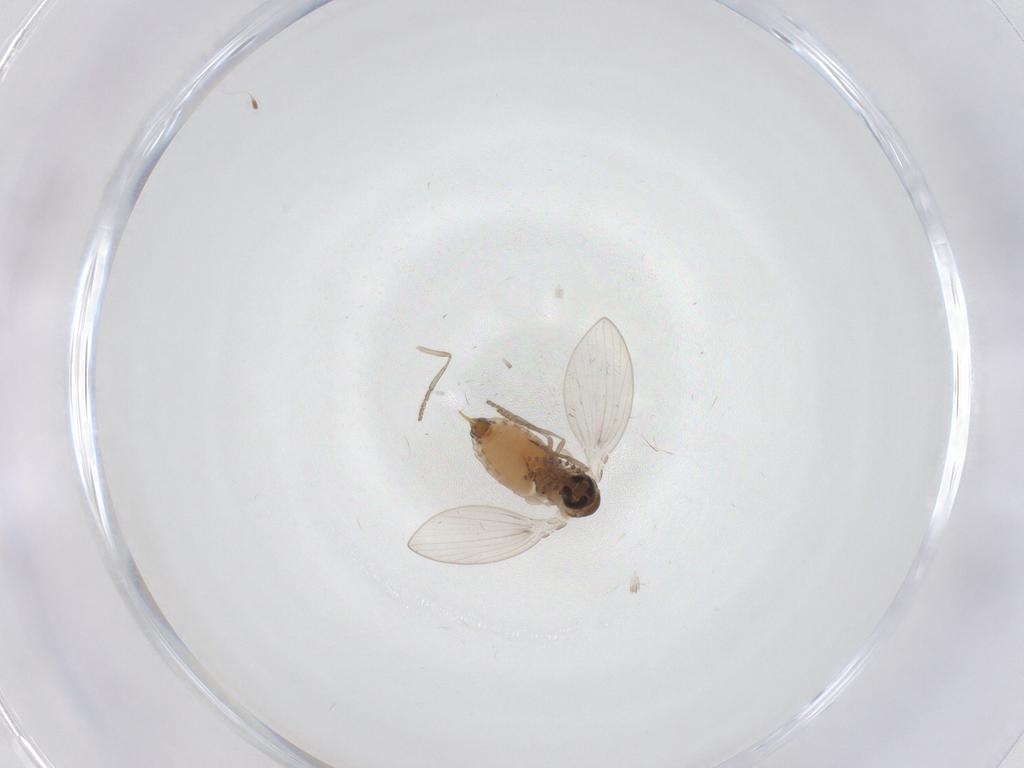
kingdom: Animalia
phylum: Arthropoda
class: Insecta
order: Diptera
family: Psychodidae
